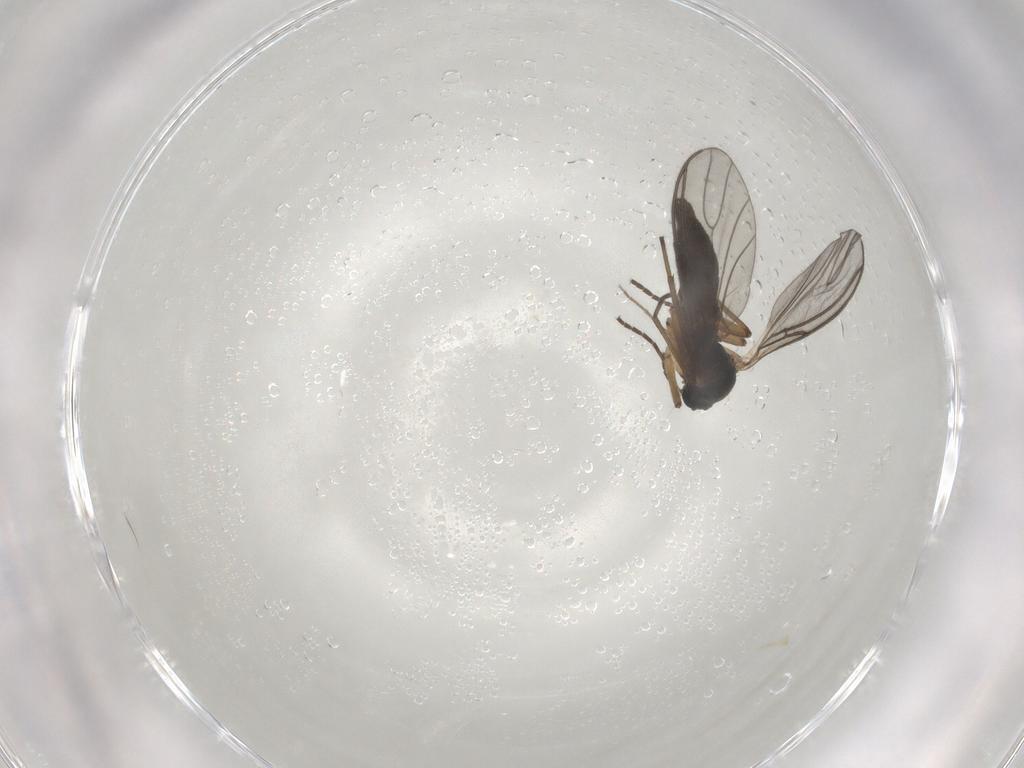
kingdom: Animalia
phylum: Arthropoda
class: Insecta
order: Diptera
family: Sciaridae
